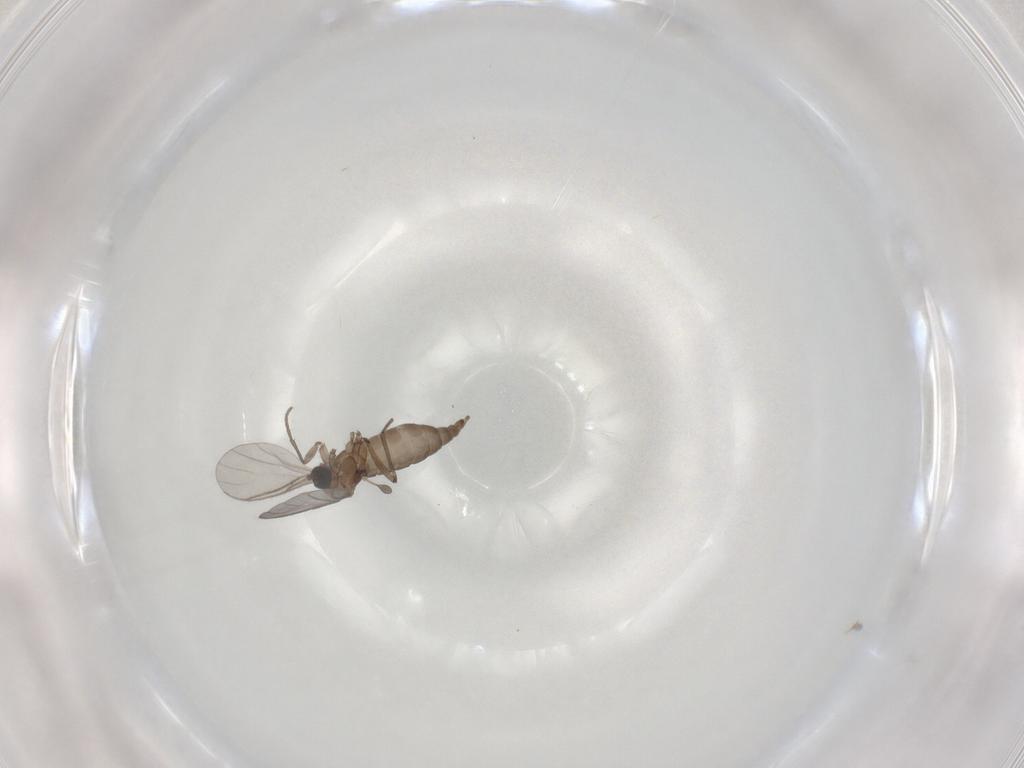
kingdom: Animalia
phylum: Arthropoda
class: Insecta
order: Diptera
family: Sciaridae
